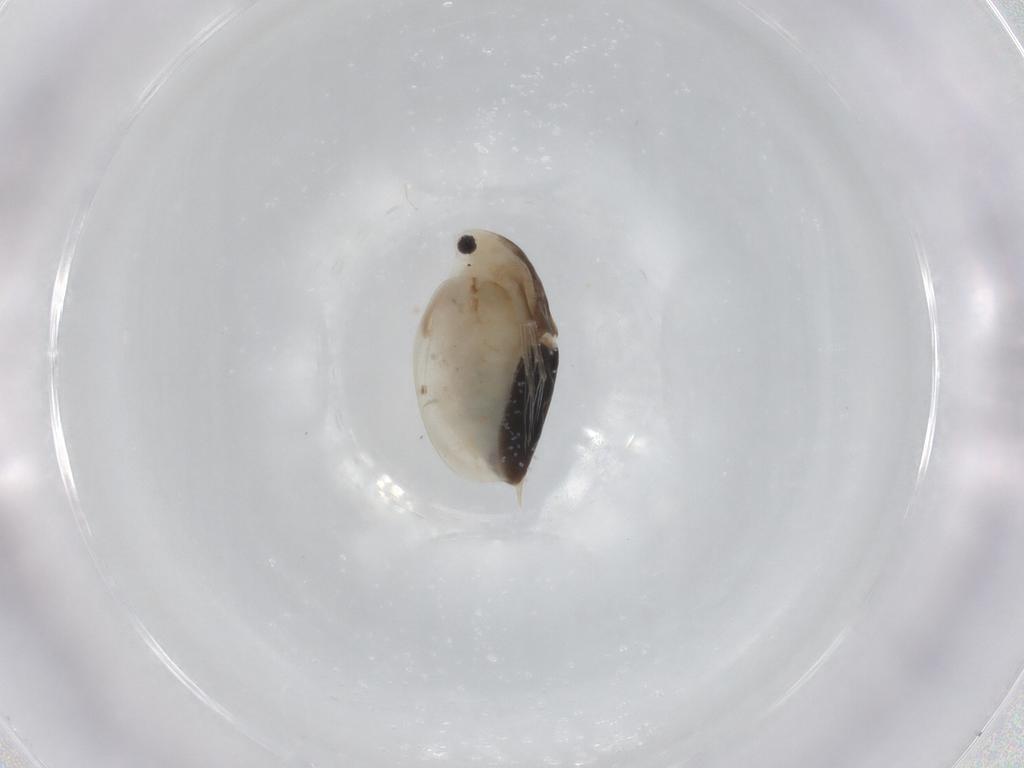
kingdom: Animalia
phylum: Arthropoda
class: Branchiopoda
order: Diplostraca
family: Daphniidae
